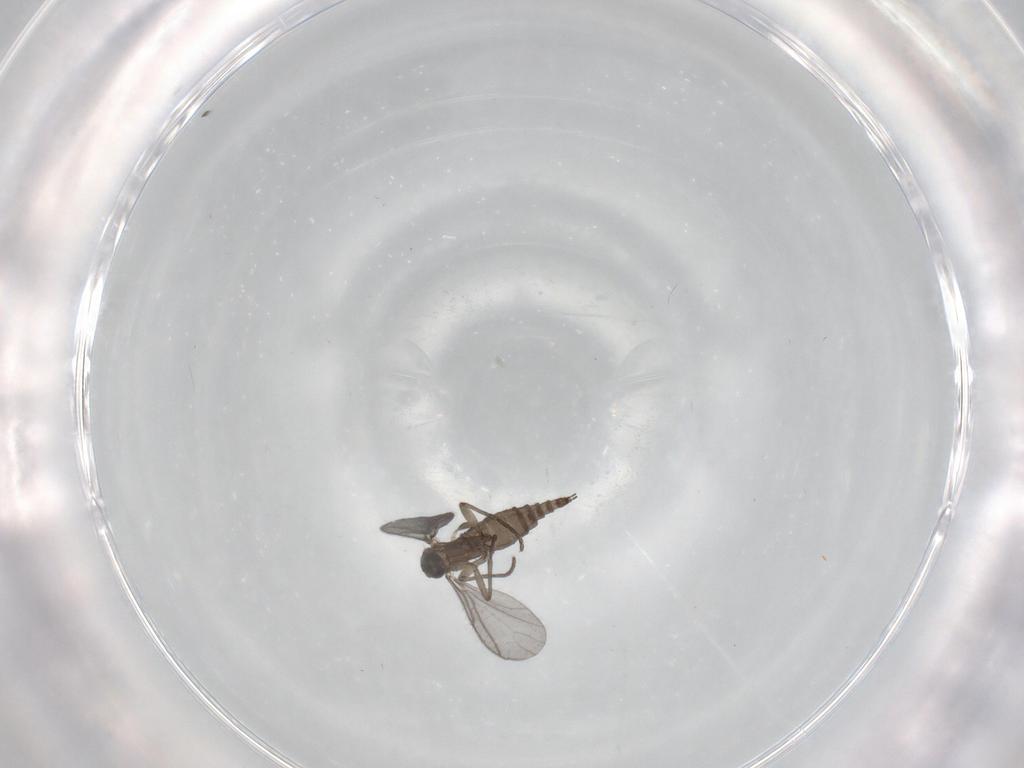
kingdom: Animalia
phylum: Arthropoda
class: Insecta
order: Diptera
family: Sciaridae
